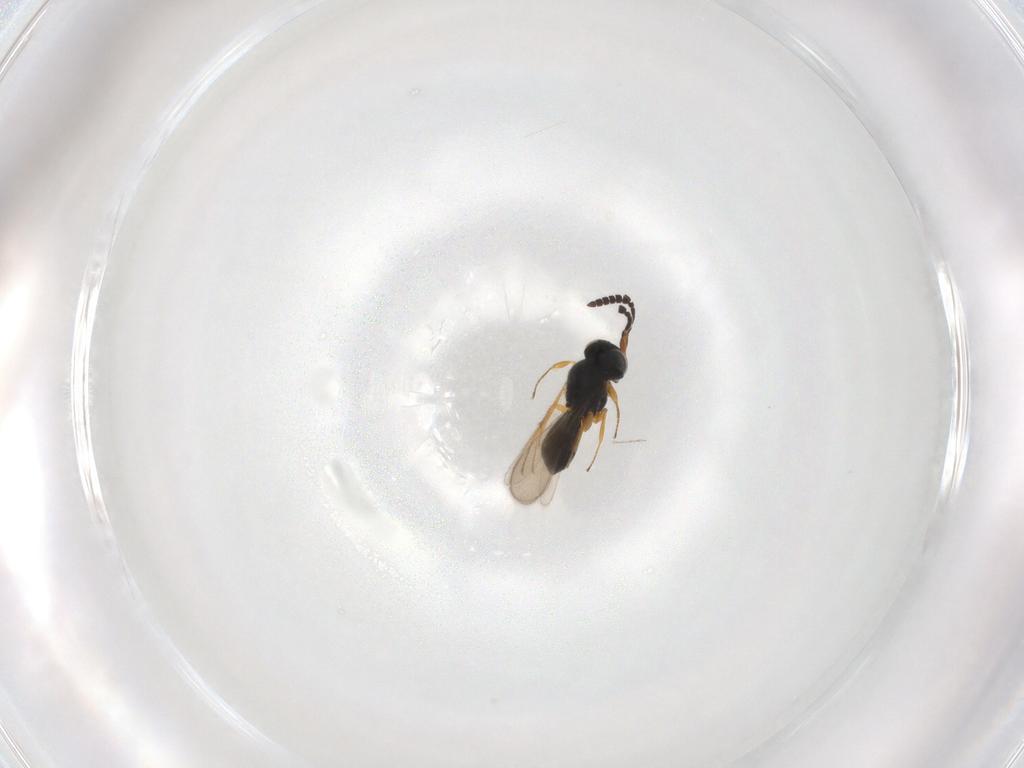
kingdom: Animalia
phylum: Arthropoda
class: Insecta
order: Hymenoptera
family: Scelionidae
